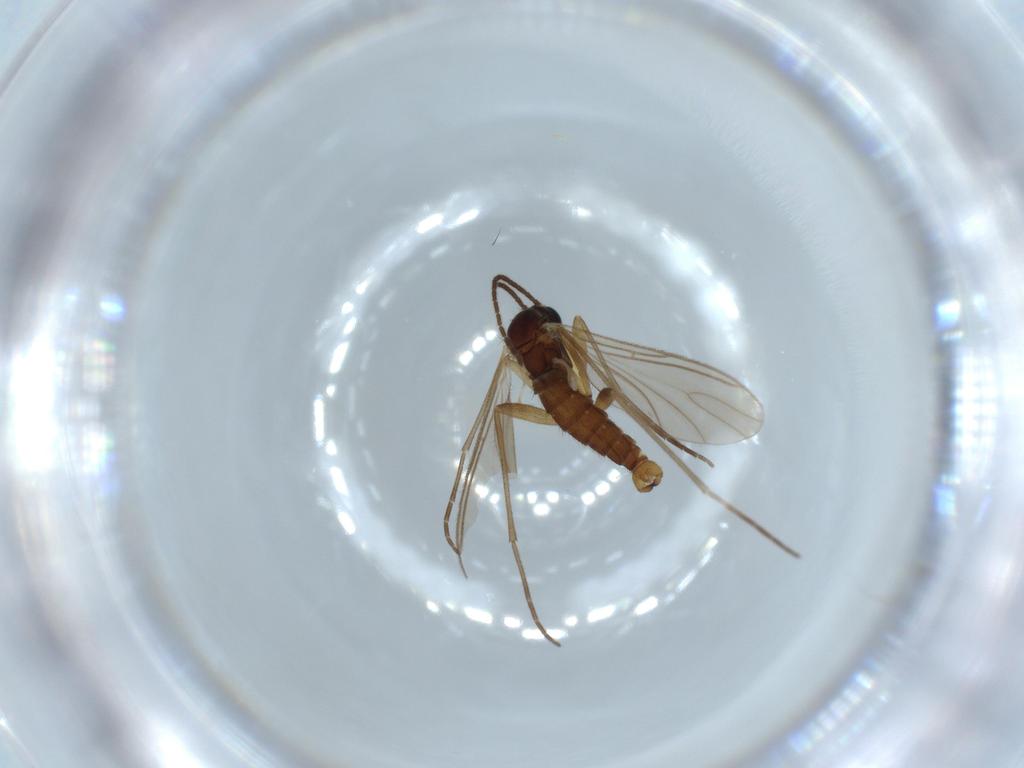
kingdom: Animalia
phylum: Arthropoda
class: Insecta
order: Diptera
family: Sciaridae
